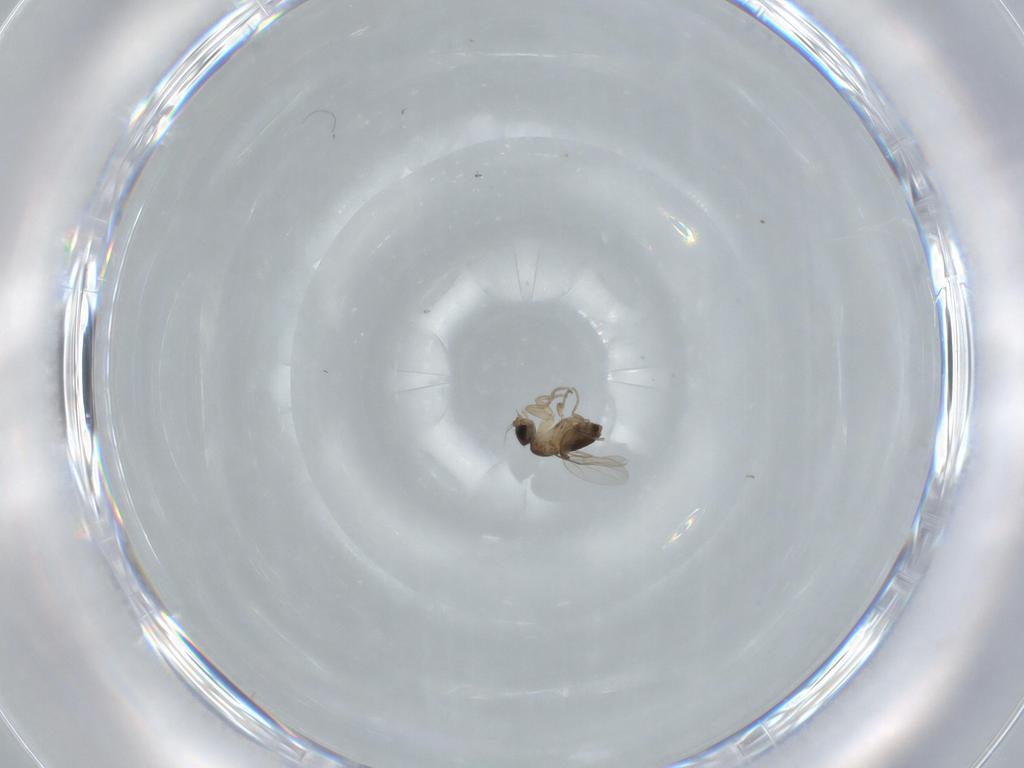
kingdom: Animalia
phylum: Arthropoda
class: Insecta
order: Diptera
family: Phoridae
